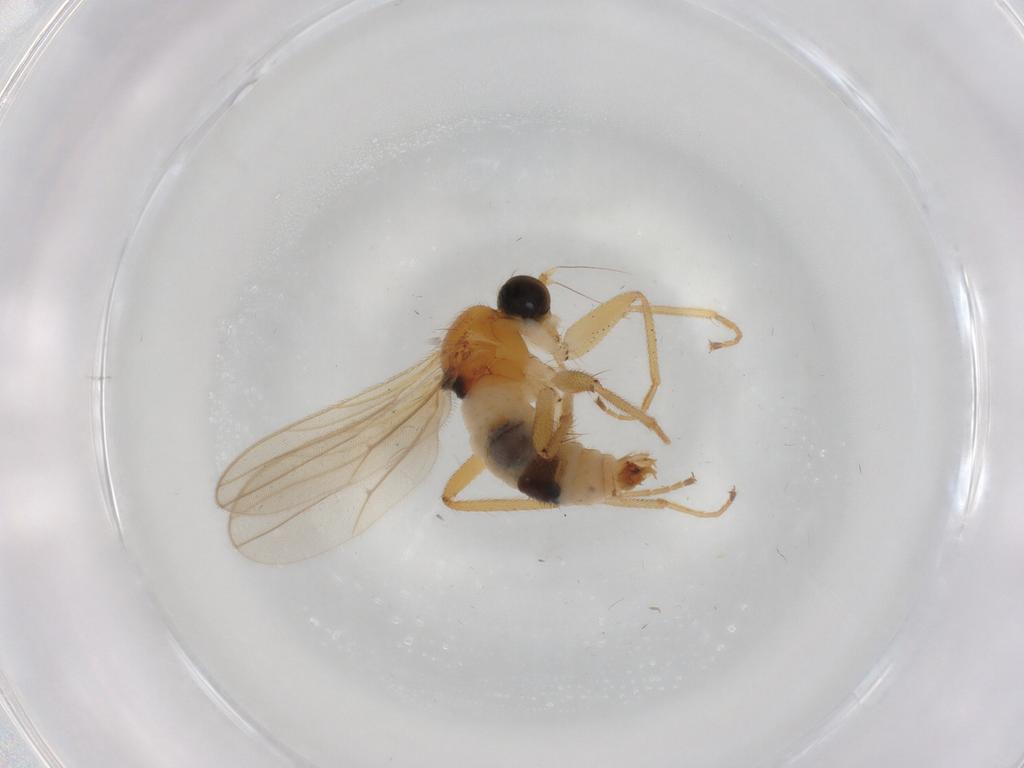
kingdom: Animalia
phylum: Arthropoda
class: Insecta
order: Diptera
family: Hybotidae
